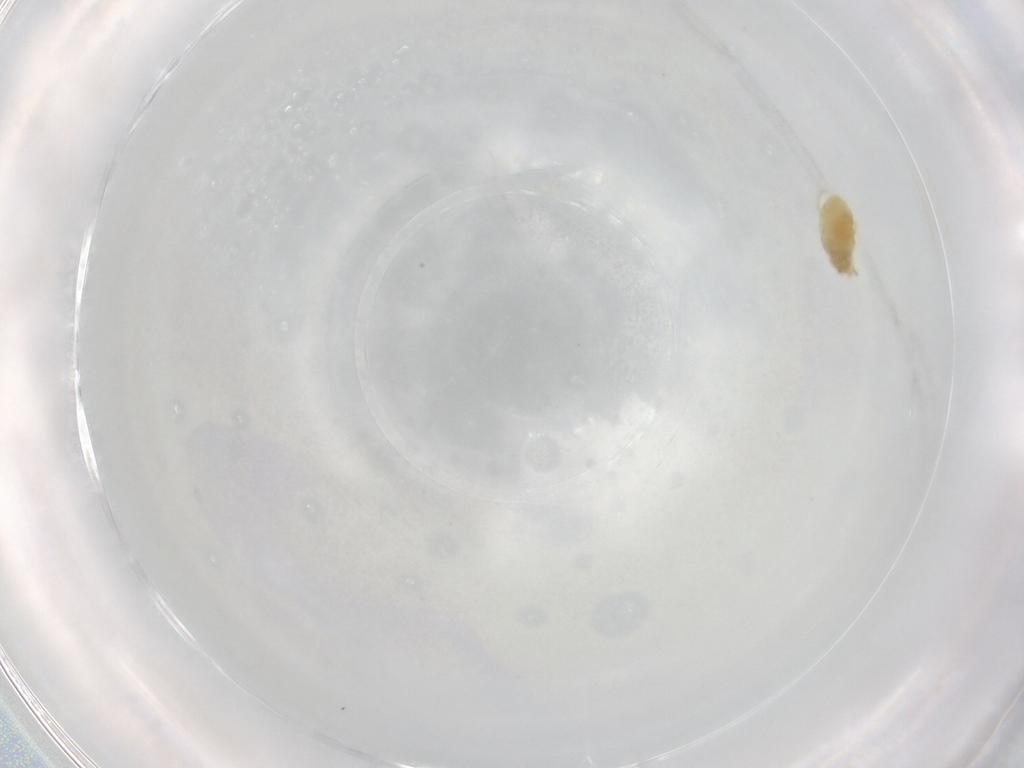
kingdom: Animalia
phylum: Arthropoda
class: Arachnida
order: Trombidiformes
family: Rhagidiidae
